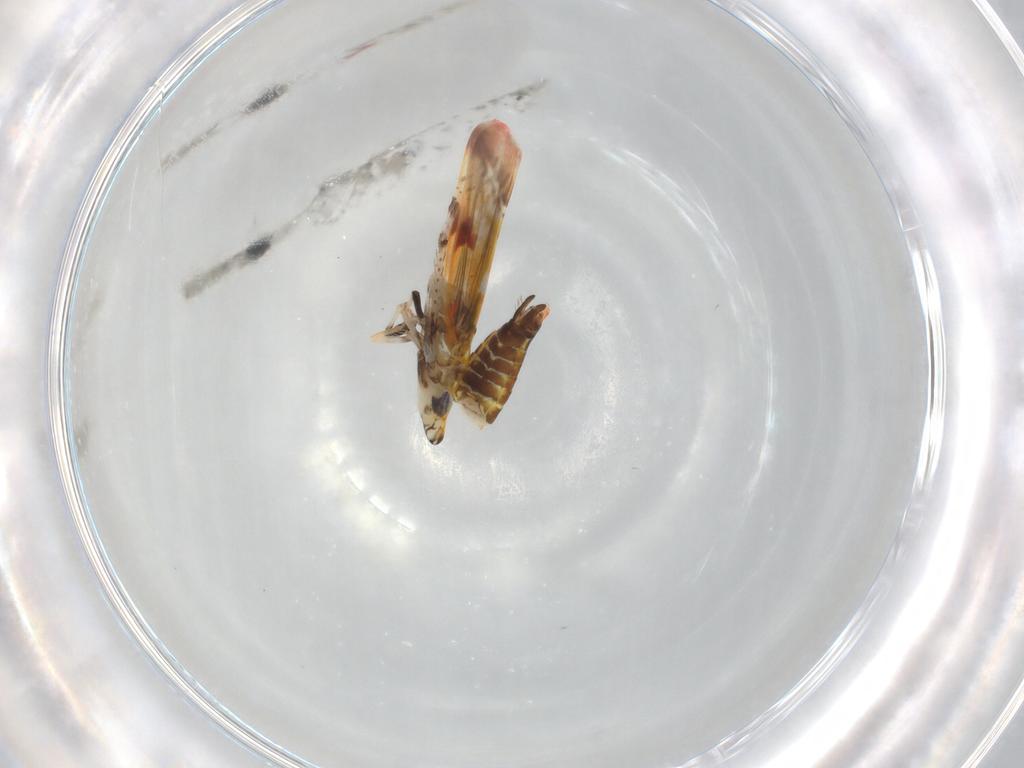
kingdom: Animalia
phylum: Arthropoda
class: Insecta
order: Hemiptera
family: Cicadellidae
